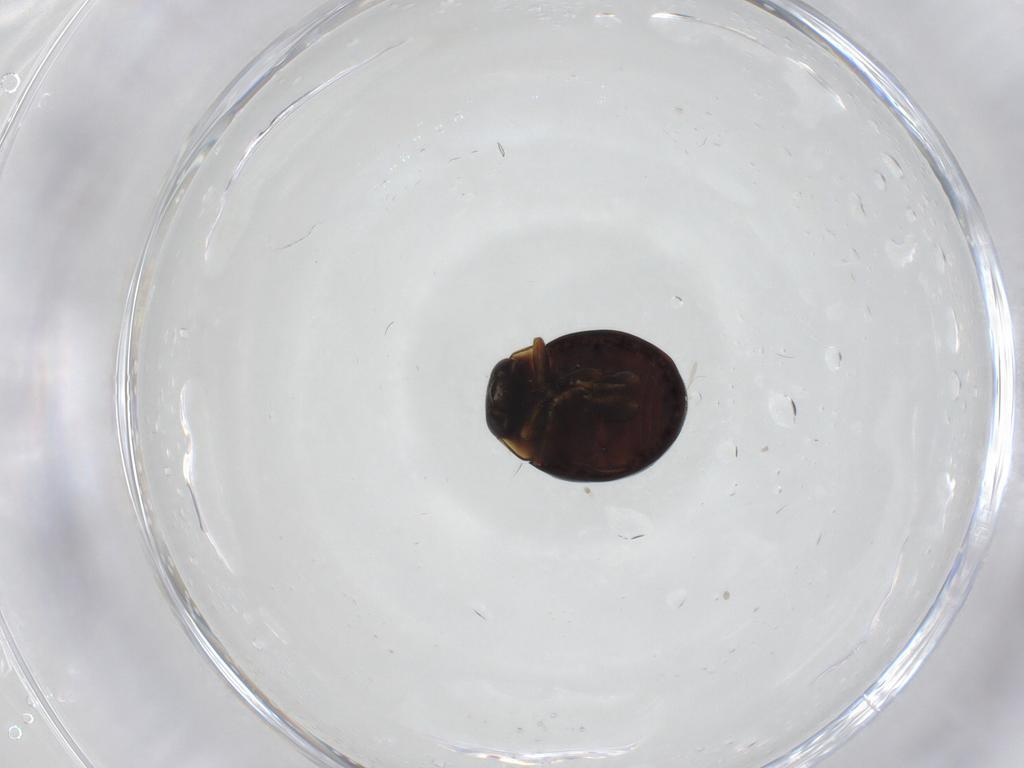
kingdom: Animalia
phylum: Arthropoda
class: Insecta
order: Coleoptera
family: Coccinellidae
